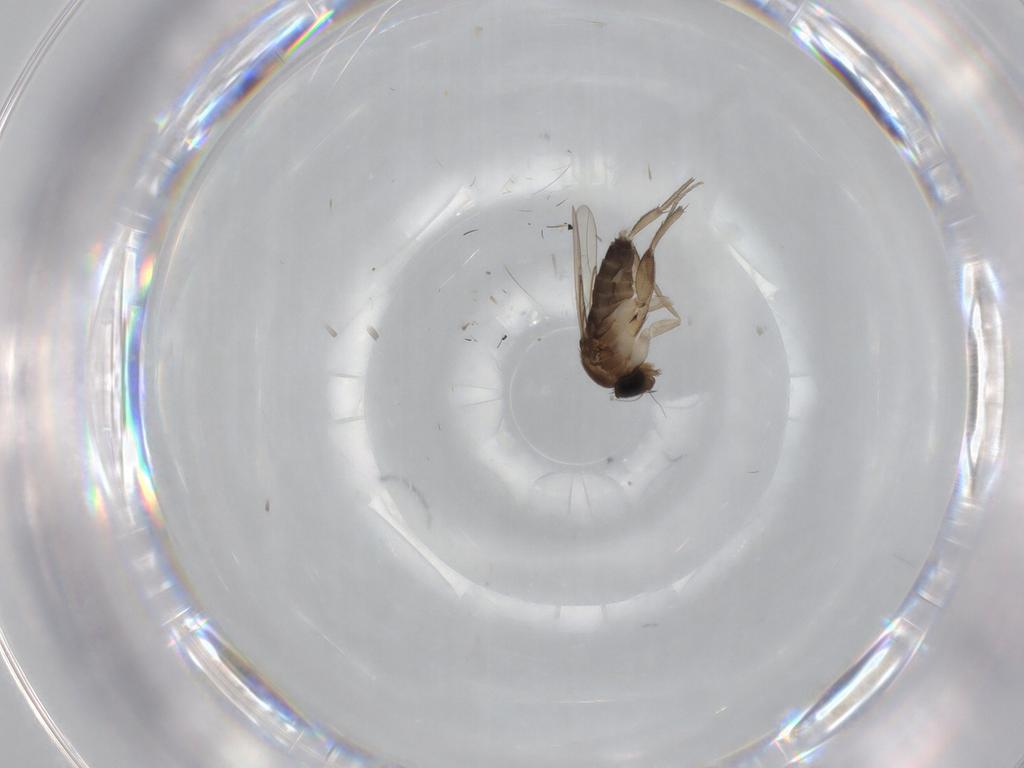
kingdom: Animalia
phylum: Arthropoda
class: Insecta
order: Diptera
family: Phoridae
